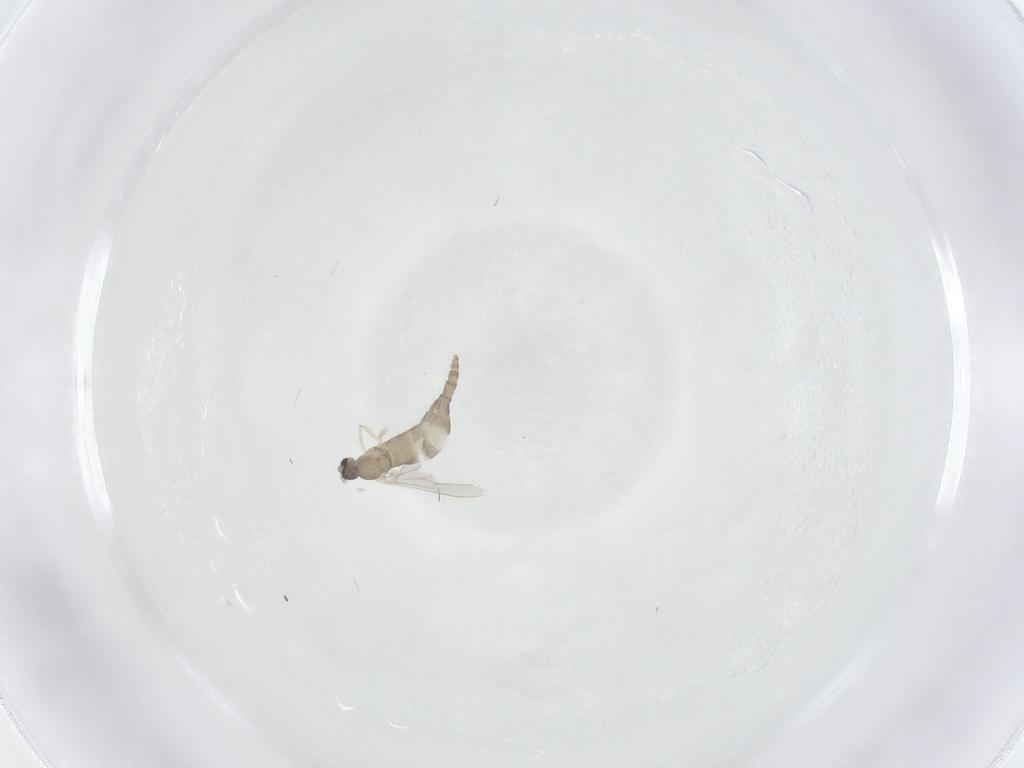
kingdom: Animalia
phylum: Arthropoda
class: Insecta
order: Diptera
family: Cecidomyiidae
